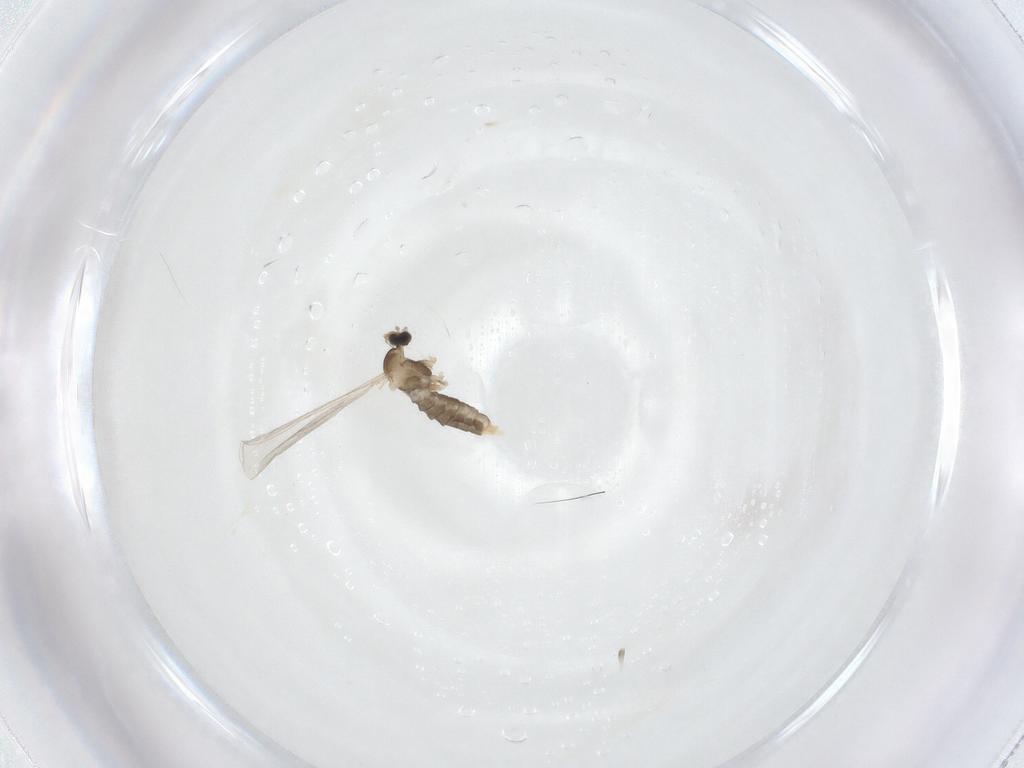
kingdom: Animalia
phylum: Arthropoda
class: Insecta
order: Diptera
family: Cecidomyiidae
